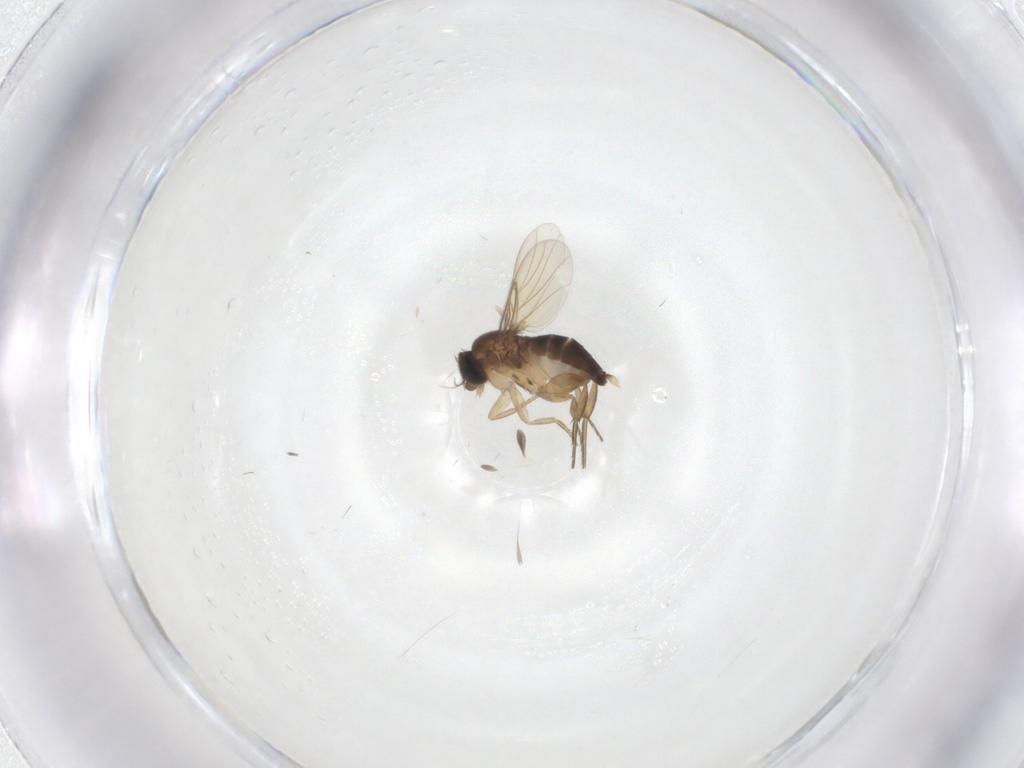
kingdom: Animalia
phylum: Arthropoda
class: Insecta
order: Diptera
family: Phoridae
